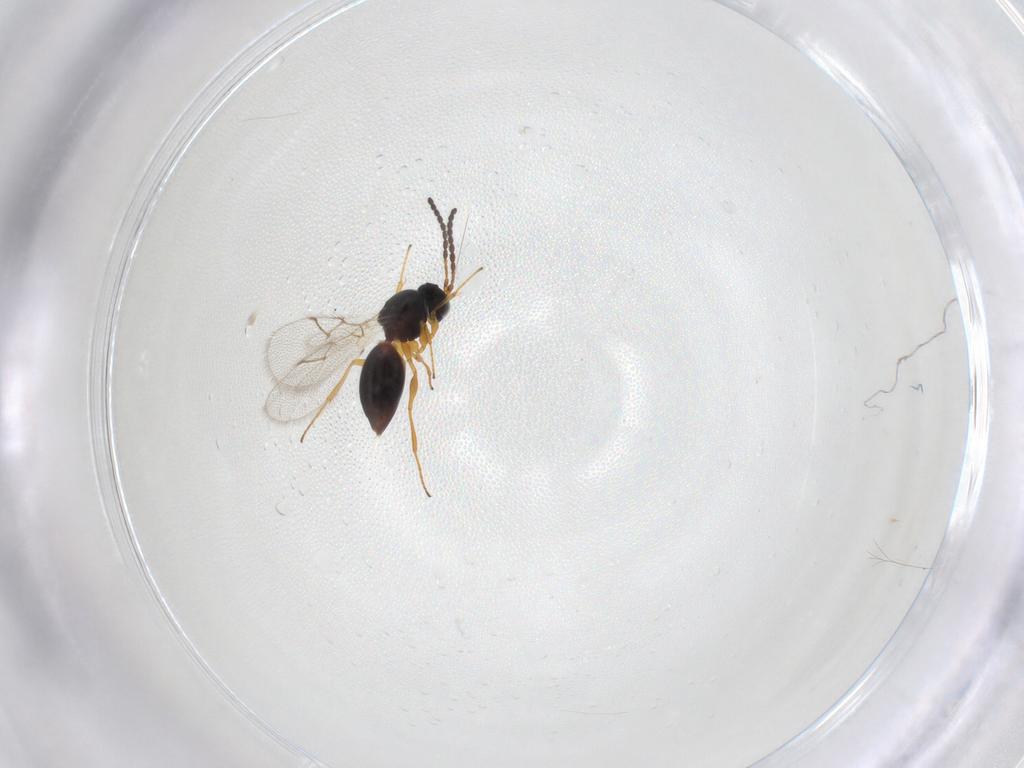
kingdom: Animalia
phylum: Arthropoda
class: Insecta
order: Hymenoptera
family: Figitidae
